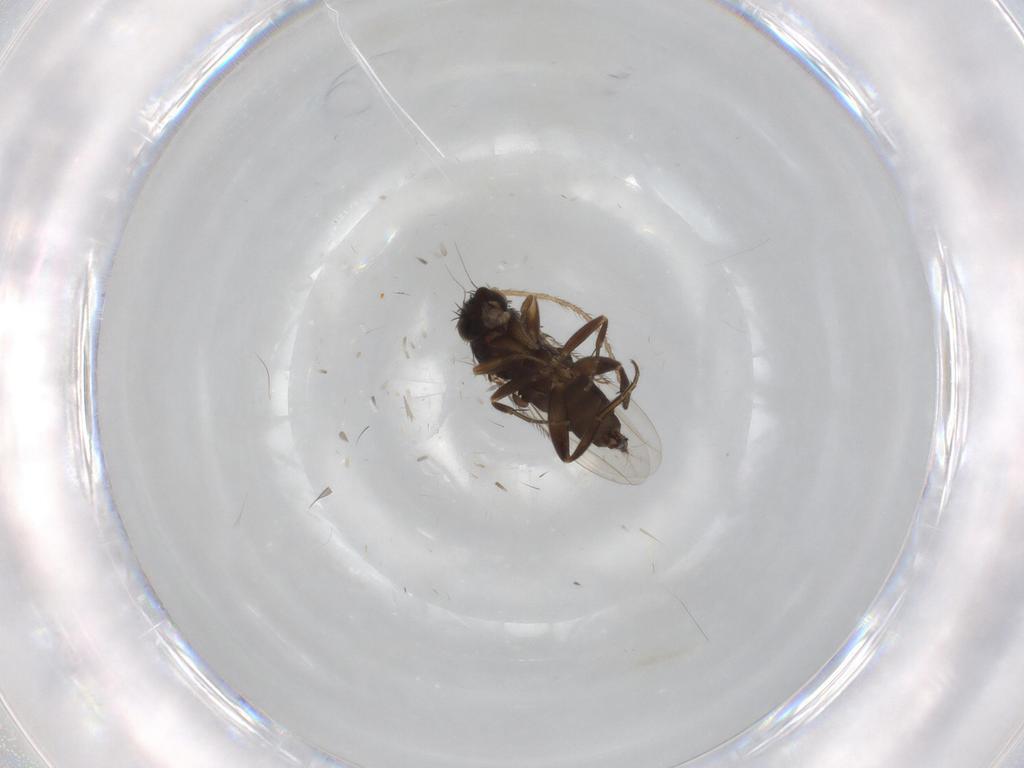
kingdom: Animalia
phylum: Arthropoda
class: Insecta
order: Diptera
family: Phoridae
